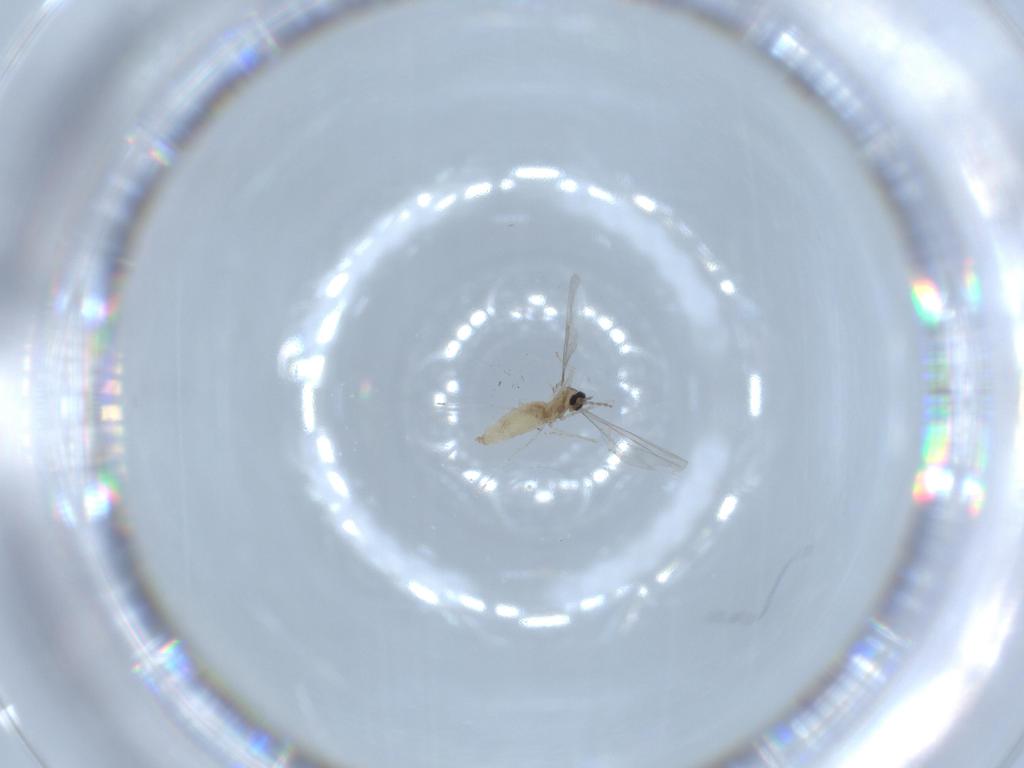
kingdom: Animalia
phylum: Arthropoda
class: Insecta
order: Diptera
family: Cecidomyiidae
